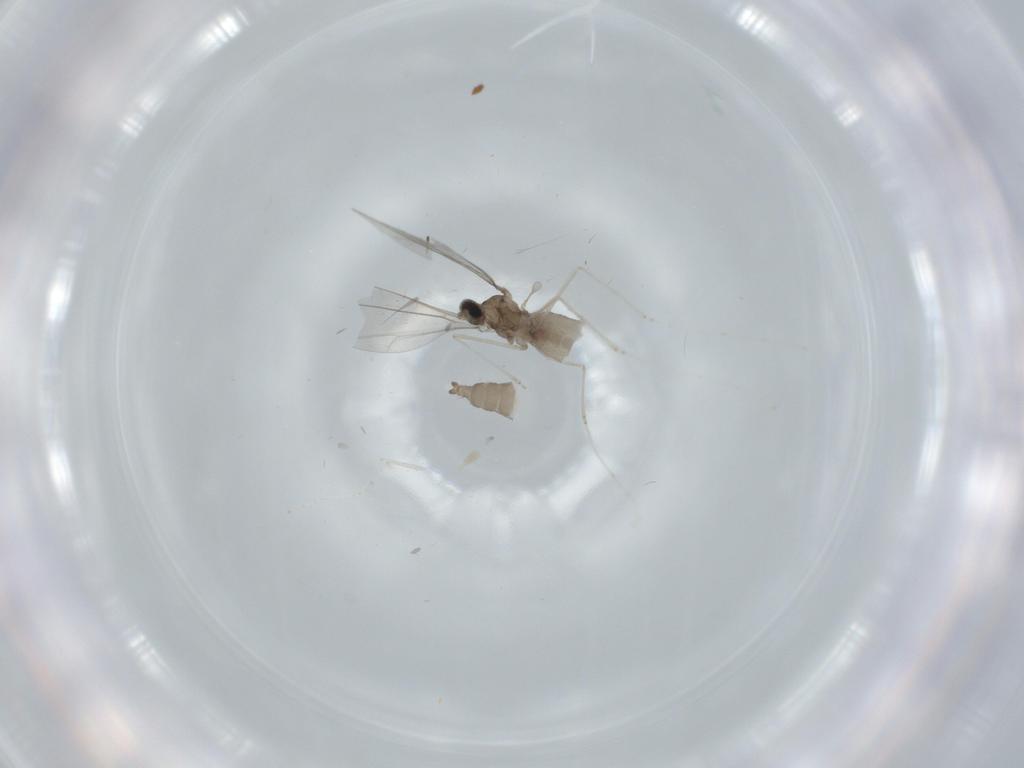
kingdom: Animalia
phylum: Arthropoda
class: Insecta
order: Diptera
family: Cecidomyiidae
